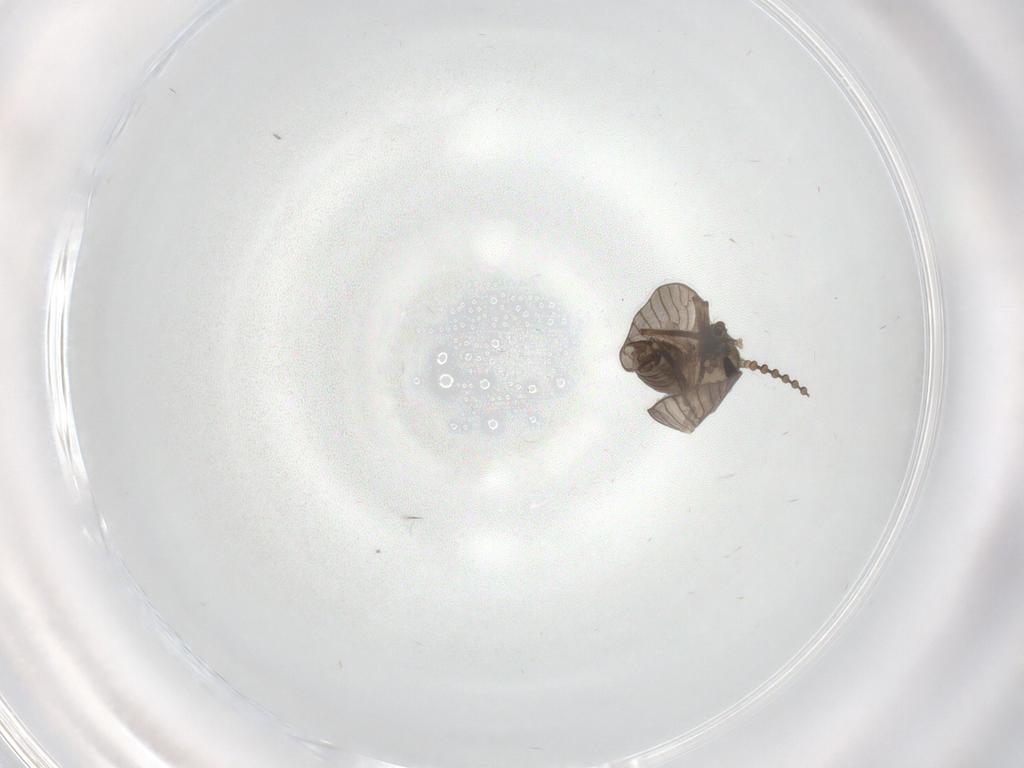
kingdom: Animalia
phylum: Arthropoda
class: Insecta
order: Diptera
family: Psychodidae
